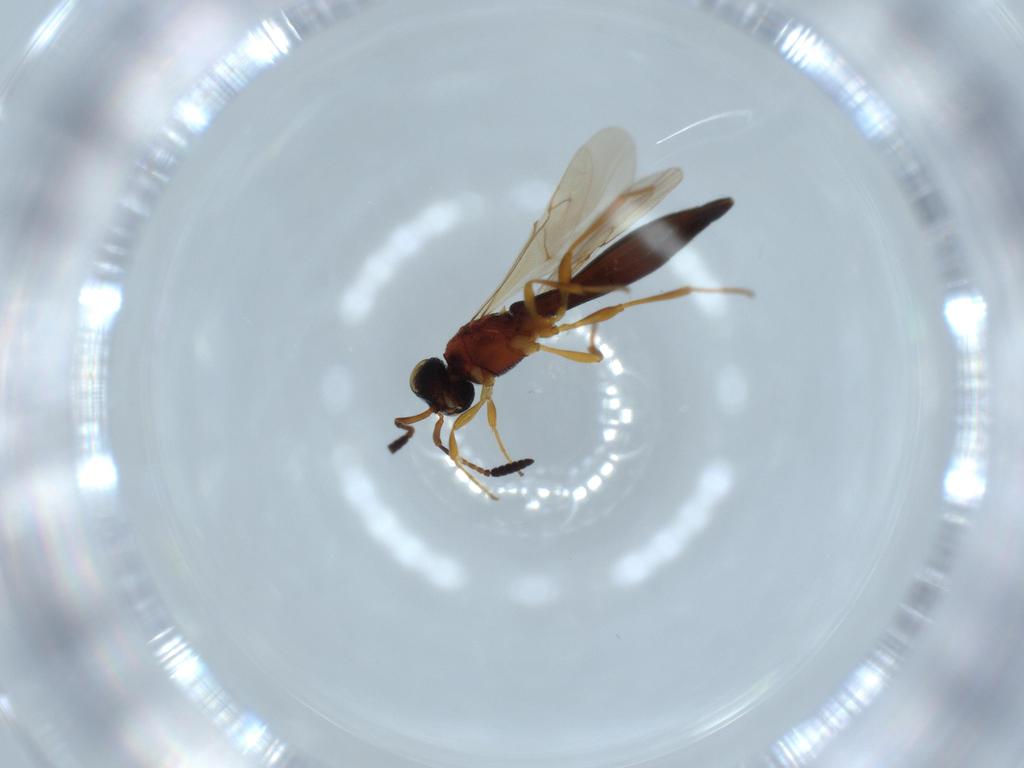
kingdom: Animalia
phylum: Arthropoda
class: Insecta
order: Hymenoptera
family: Scelionidae
